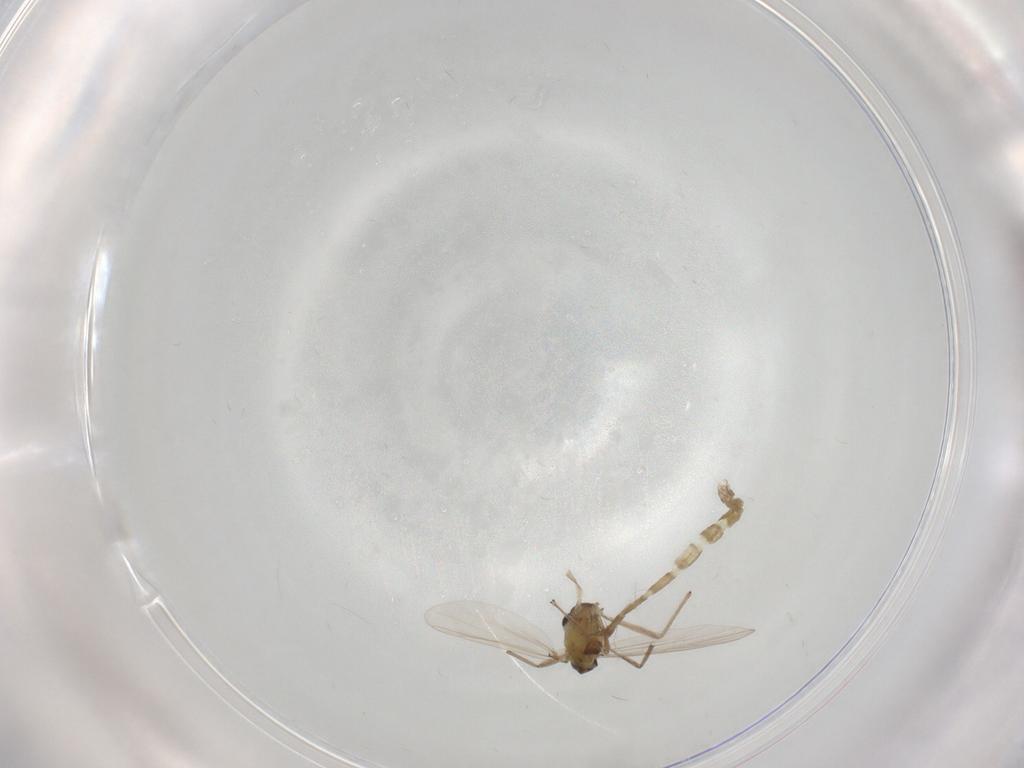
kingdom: Animalia
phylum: Arthropoda
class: Insecta
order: Diptera
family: Chironomidae
